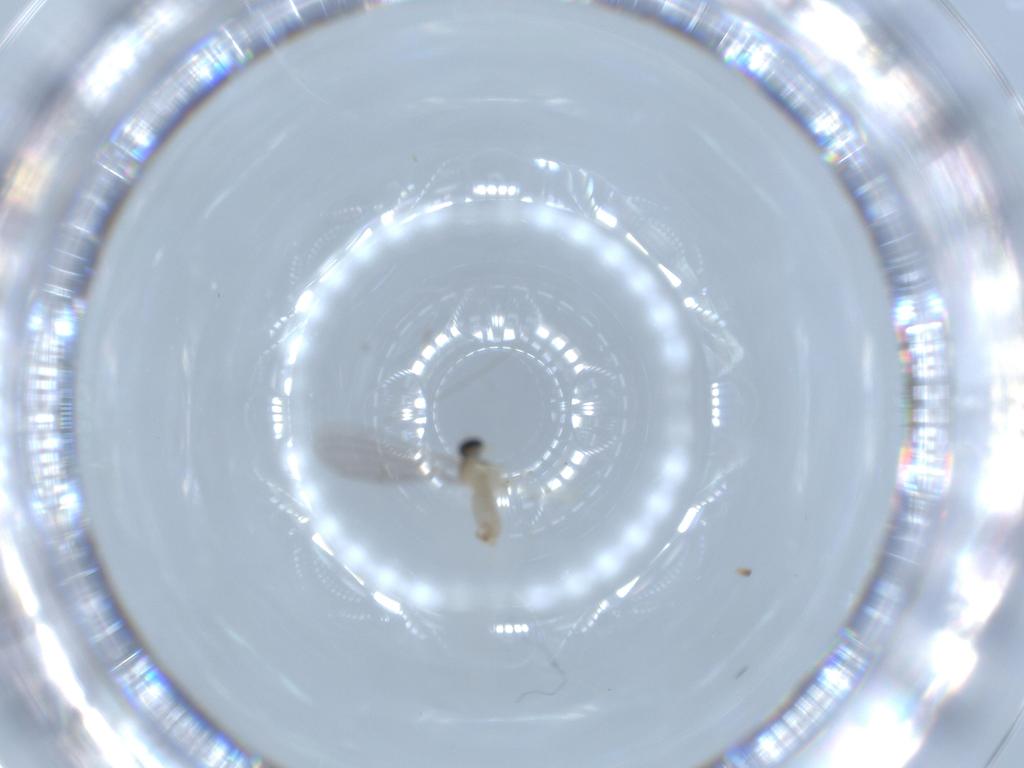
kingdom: Animalia
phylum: Arthropoda
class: Insecta
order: Diptera
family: Cecidomyiidae
